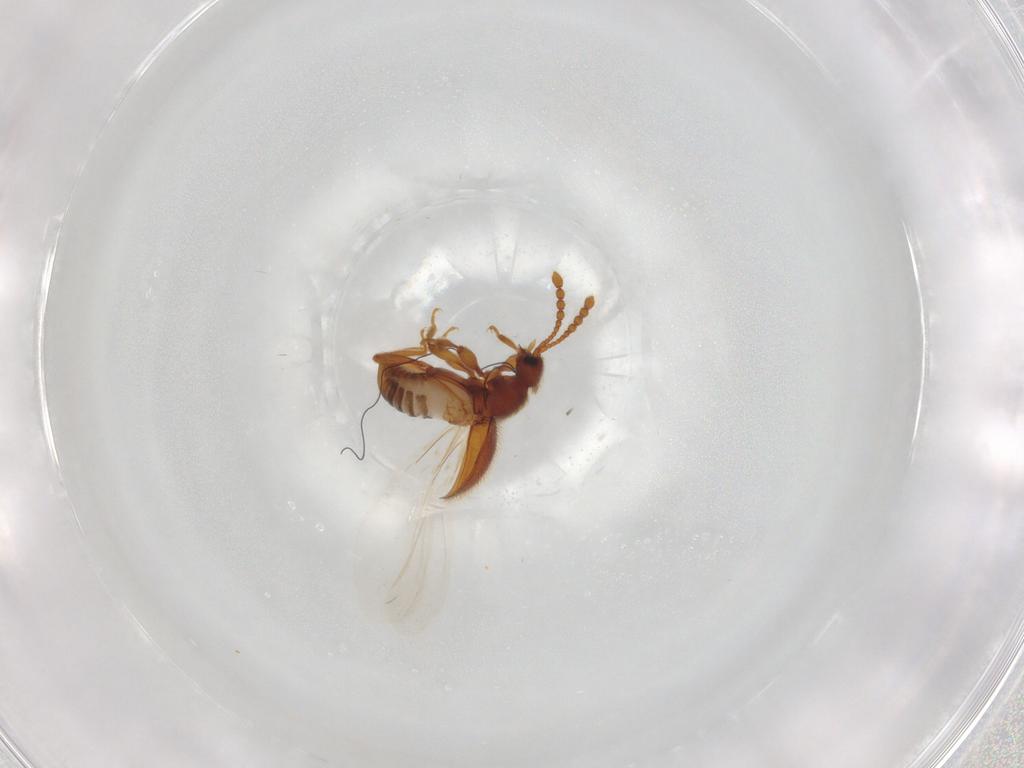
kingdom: Animalia
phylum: Arthropoda
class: Insecta
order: Coleoptera
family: Staphylinidae
